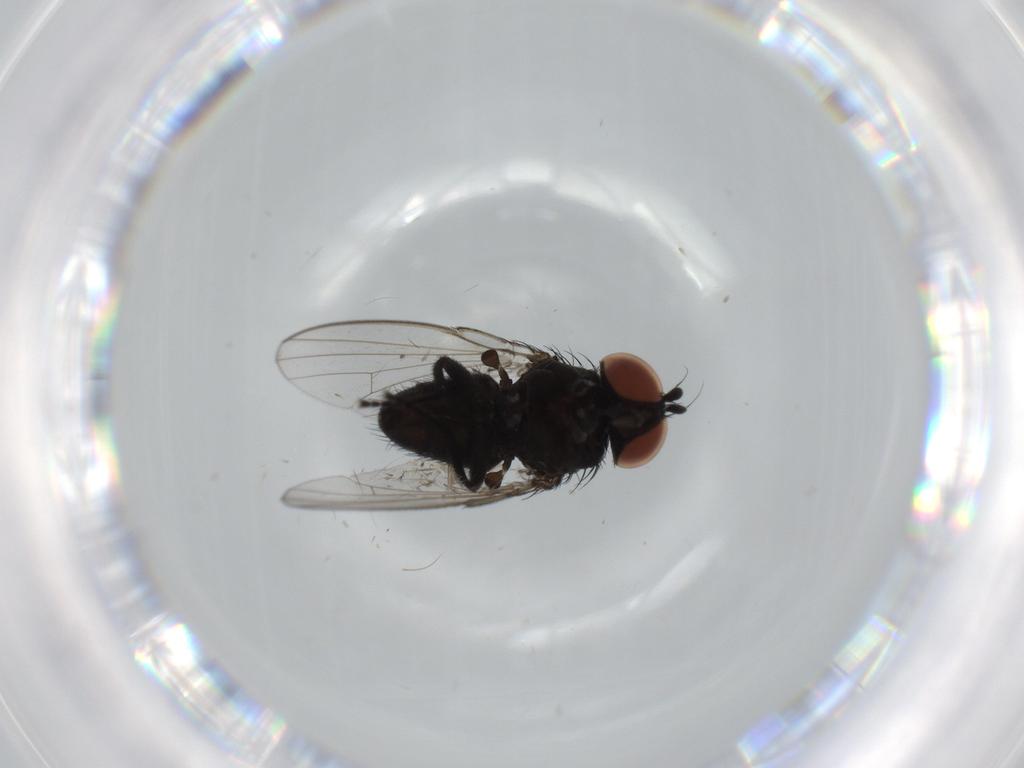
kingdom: Animalia
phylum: Arthropoda
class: Insecta
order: Diptera
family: Milichiidae
